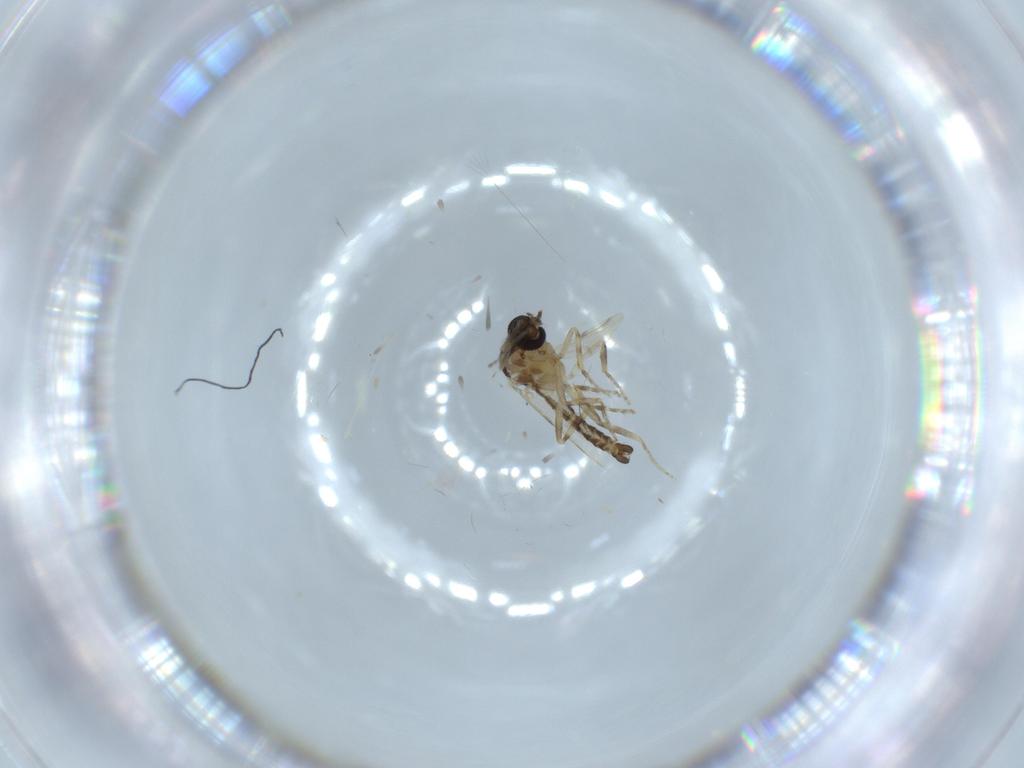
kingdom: Animalia
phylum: Arthropoda
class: Insecta
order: Diptera
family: Ceratopogonidae
